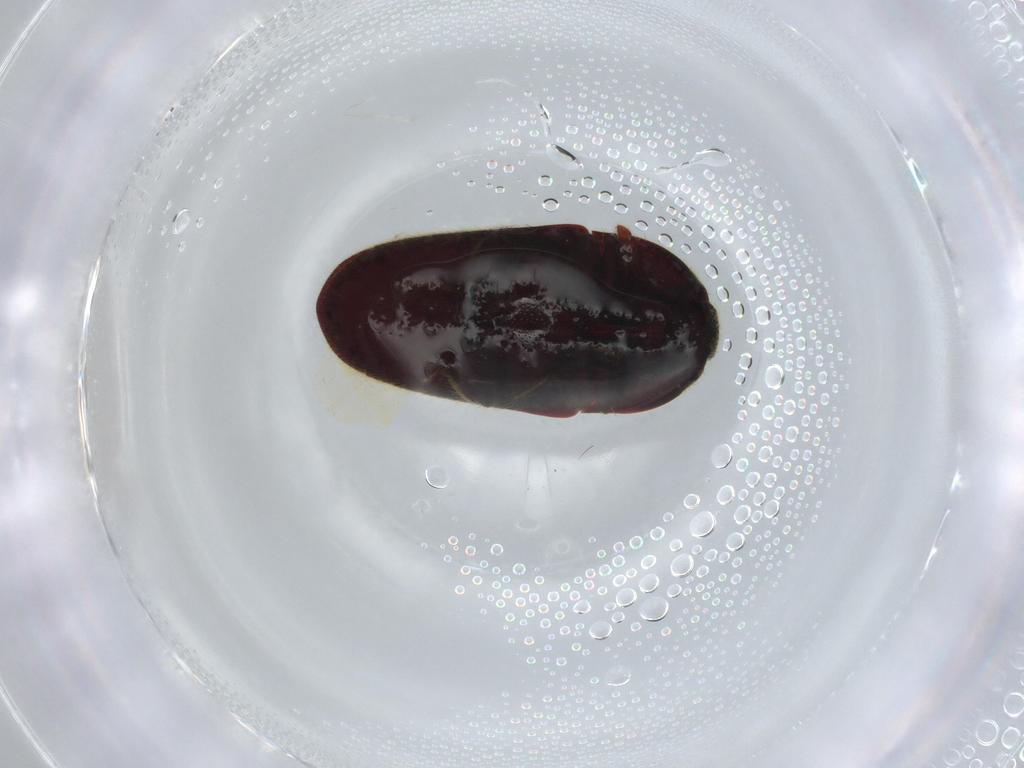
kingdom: Animalia
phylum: Arthropoda
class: Insecta
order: Coleoptera
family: Throscidae
